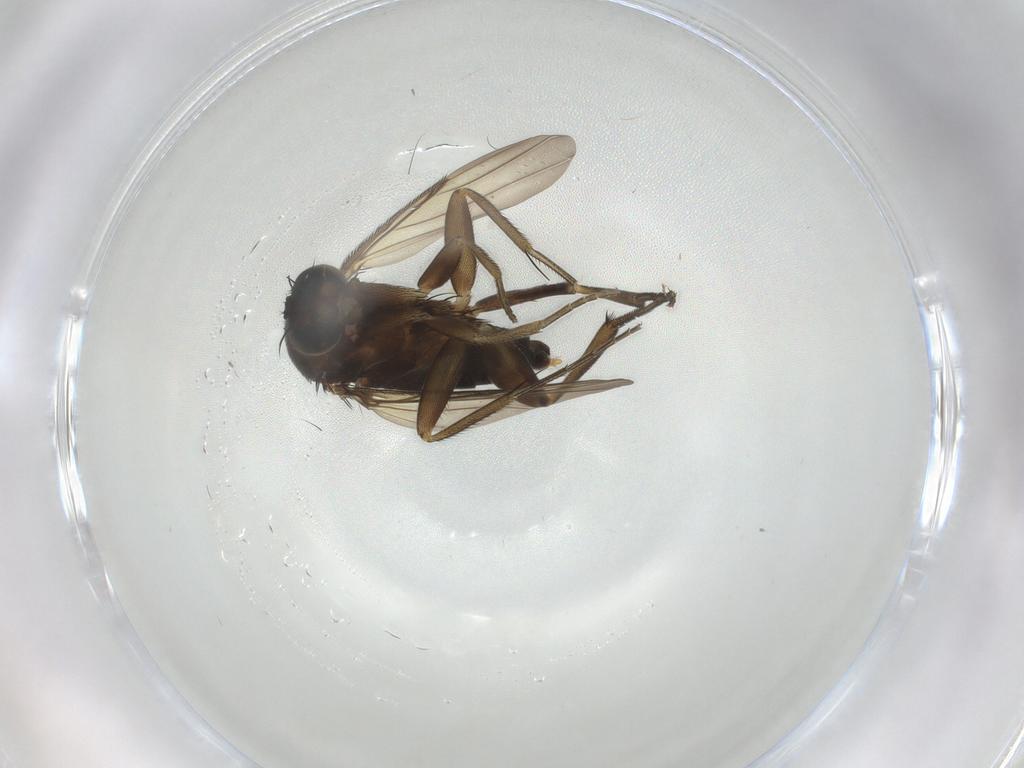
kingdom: Animalia
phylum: Arthropoda
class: Insecta
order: Diptera
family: Phoridae
